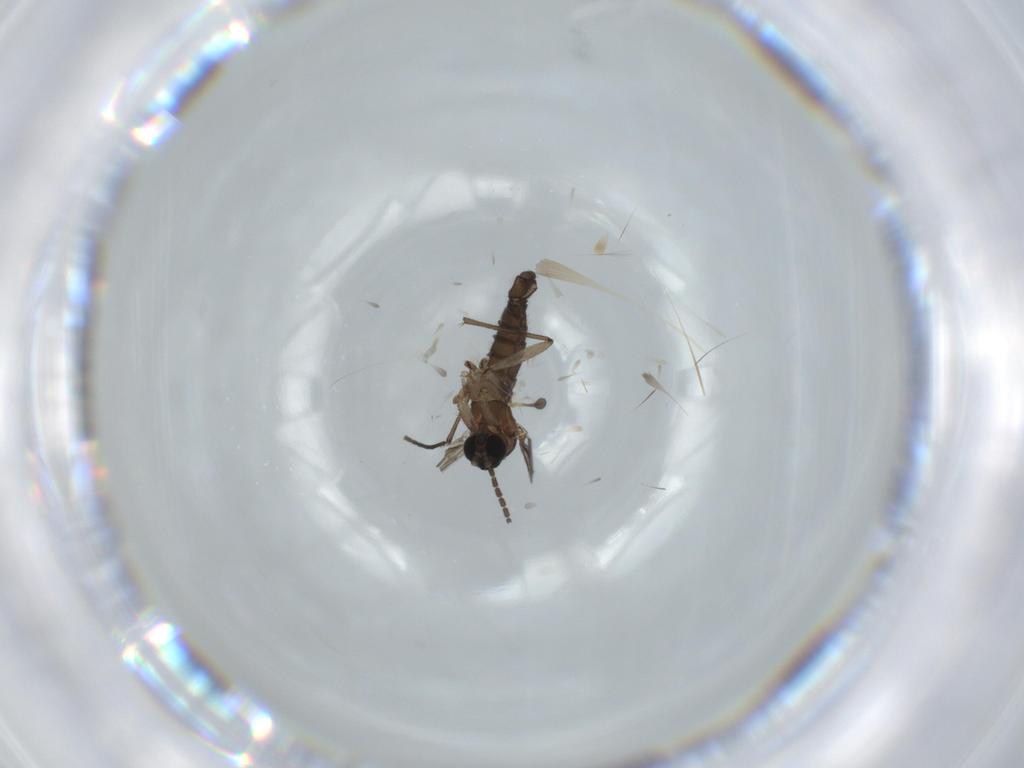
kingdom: Animalia
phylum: Arthropoda
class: Insecta
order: Diptera
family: Sciaridae
